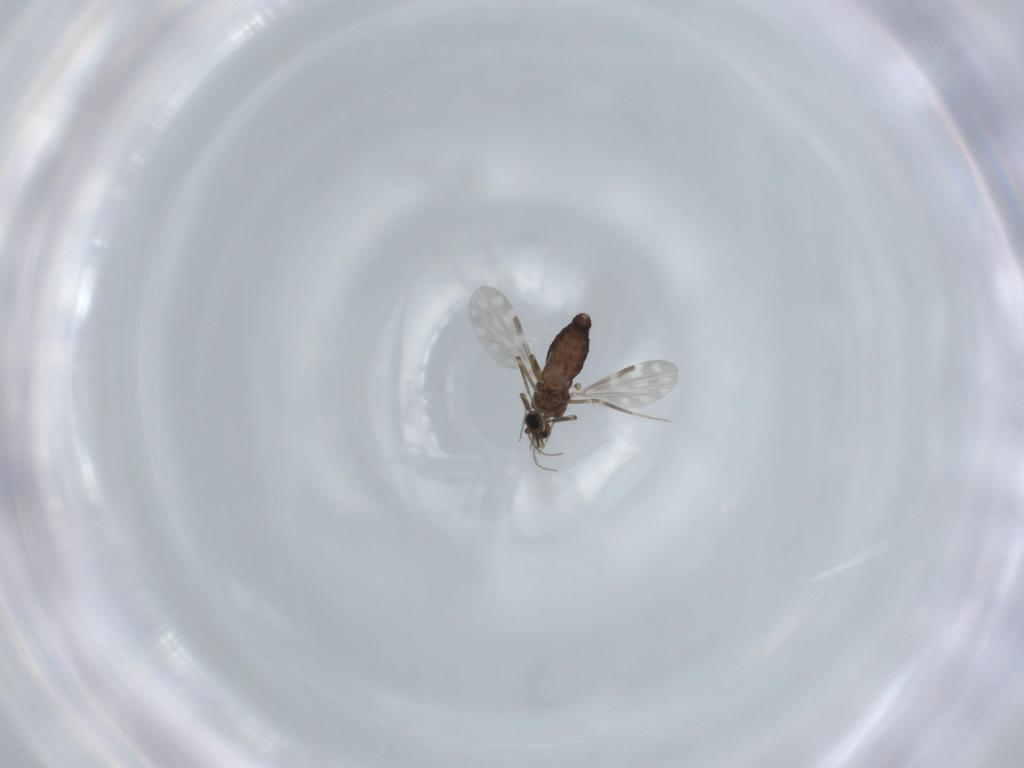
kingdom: Animalia
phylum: Arthropoda
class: Insecta
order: Diptera
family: Ceratopogonidae
